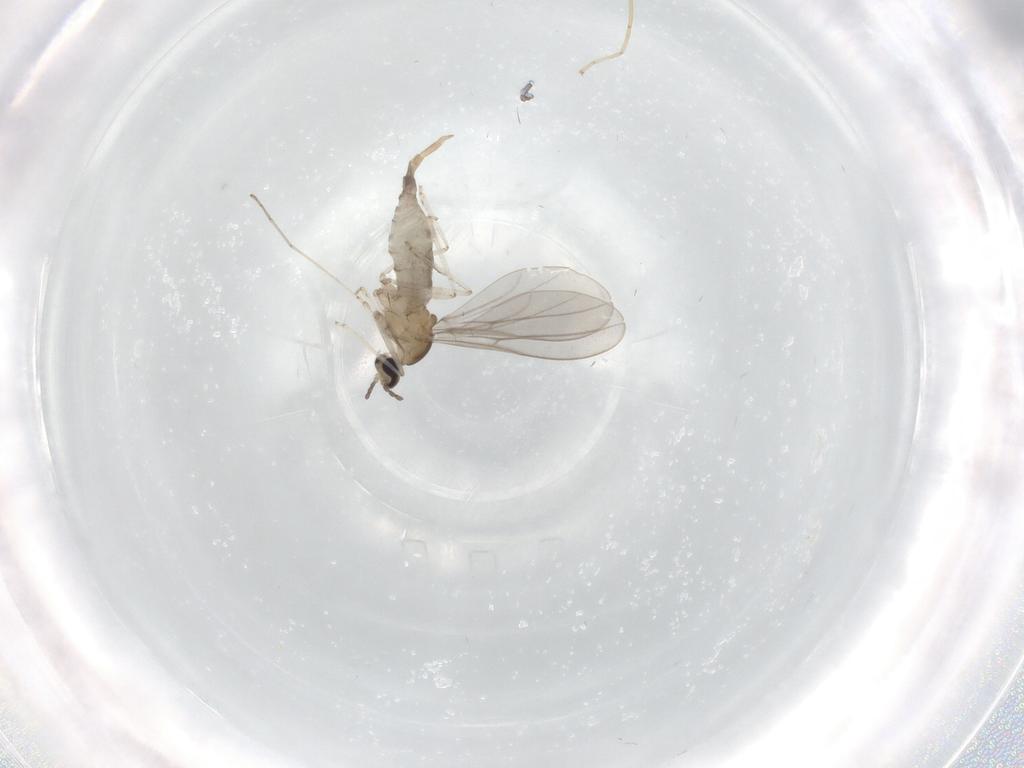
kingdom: Animalia
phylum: Arthropoda
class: Insecta
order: Diptera
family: Cecidomyiidae
